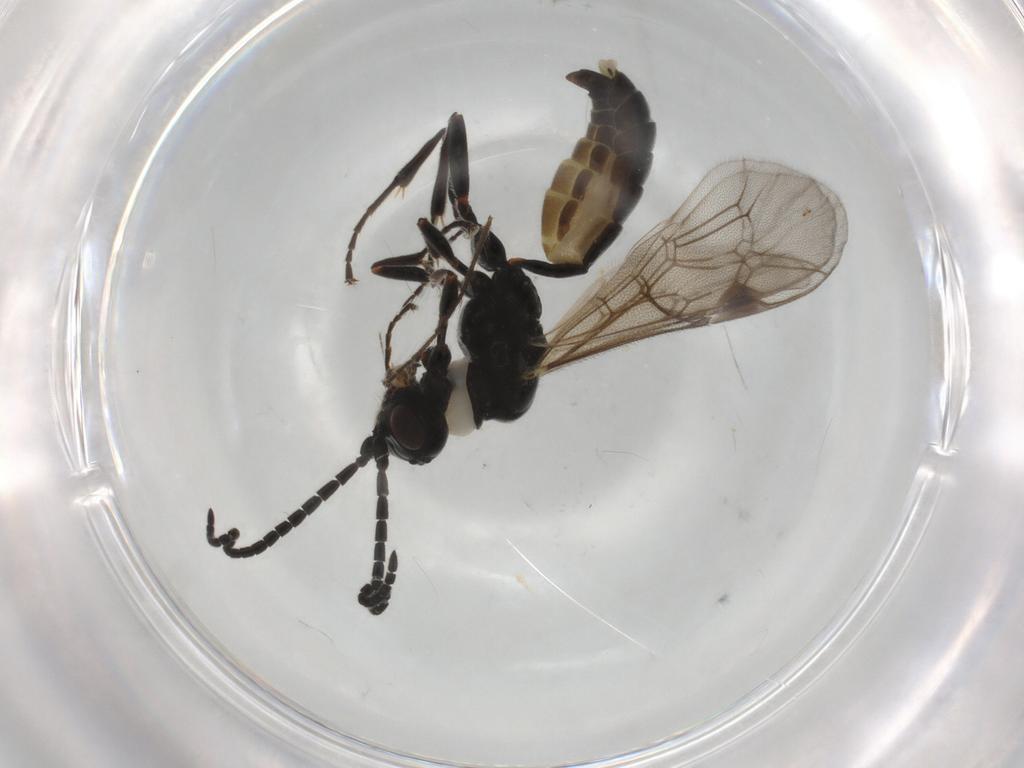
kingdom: Animalia
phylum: Arthropoda
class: Insecta
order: Hymenoptera
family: Ichneumonidae
